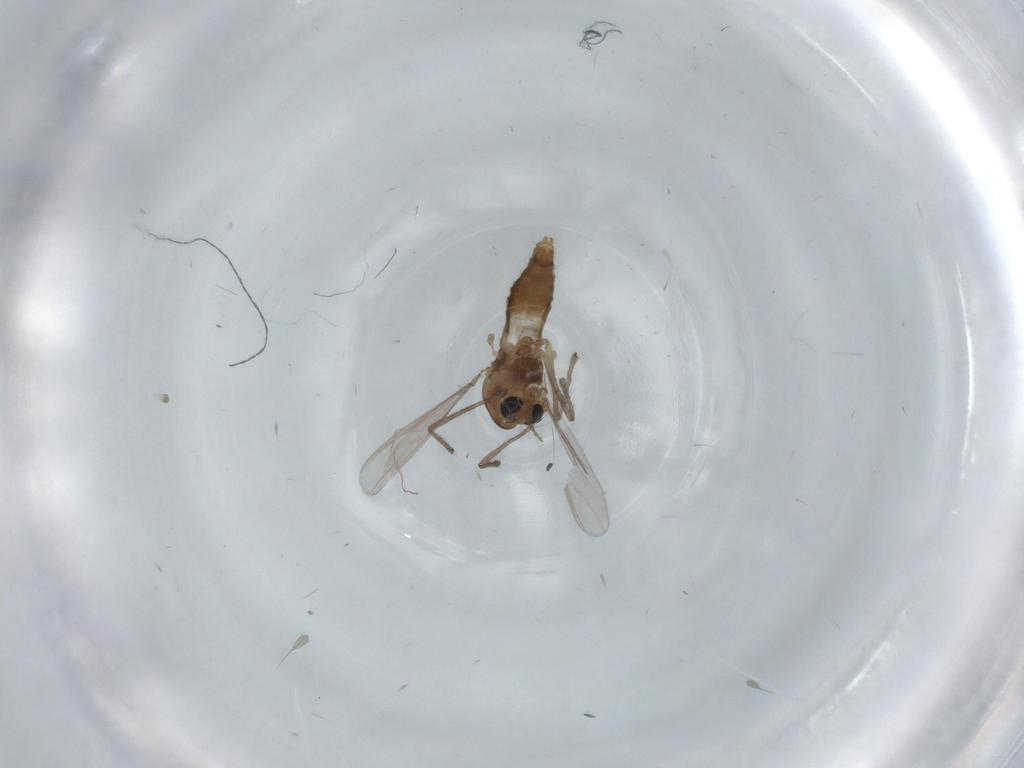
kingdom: Animalia
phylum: Arthropoda
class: Insecta
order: Diptera
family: Chironomidae
